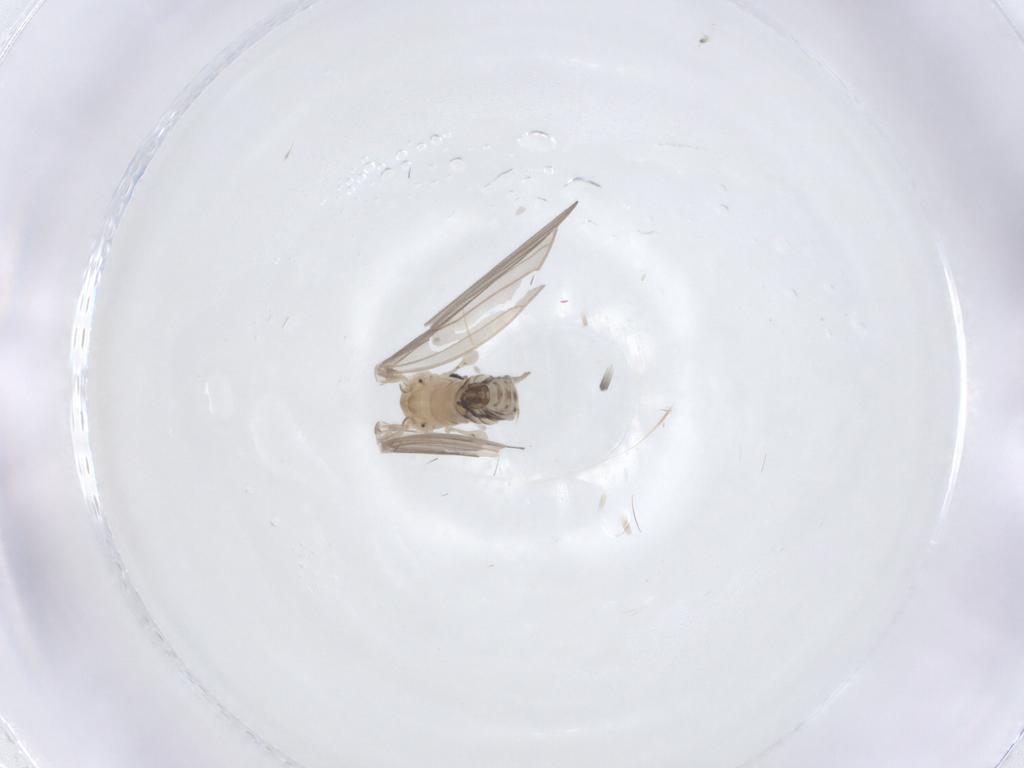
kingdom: Animalia
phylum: Arthropoda
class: Insecta
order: Diptera
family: Psychodidae
